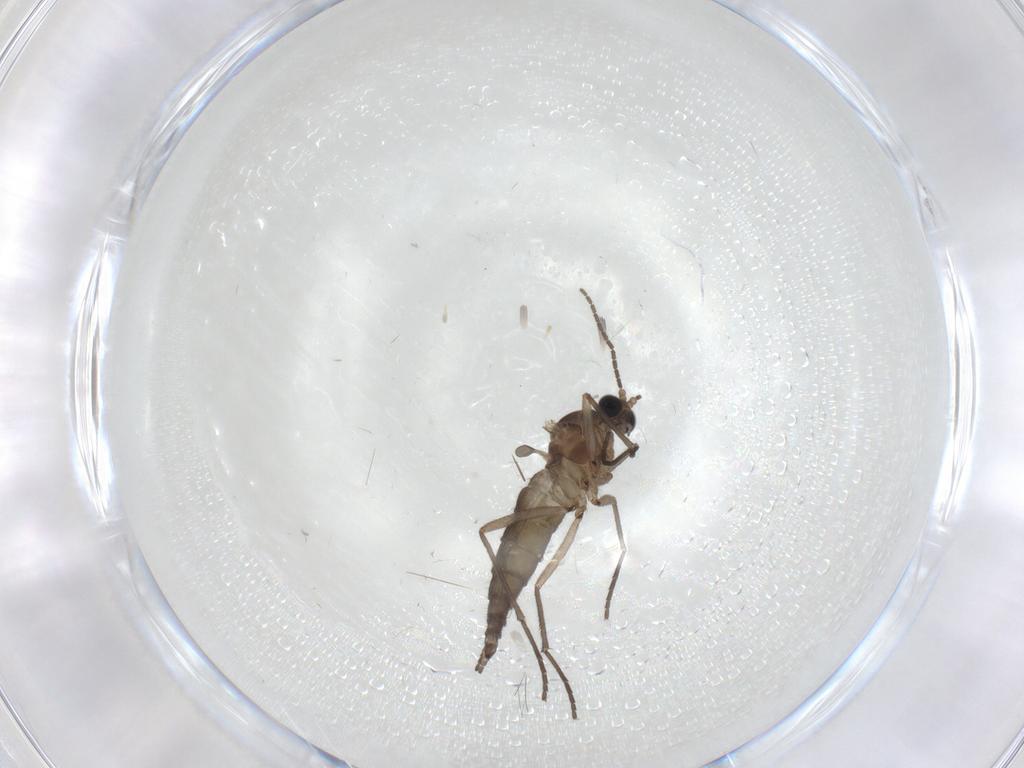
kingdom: Animalia
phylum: Arthropoda
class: Insecta
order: Diptera
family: Sciaridae
